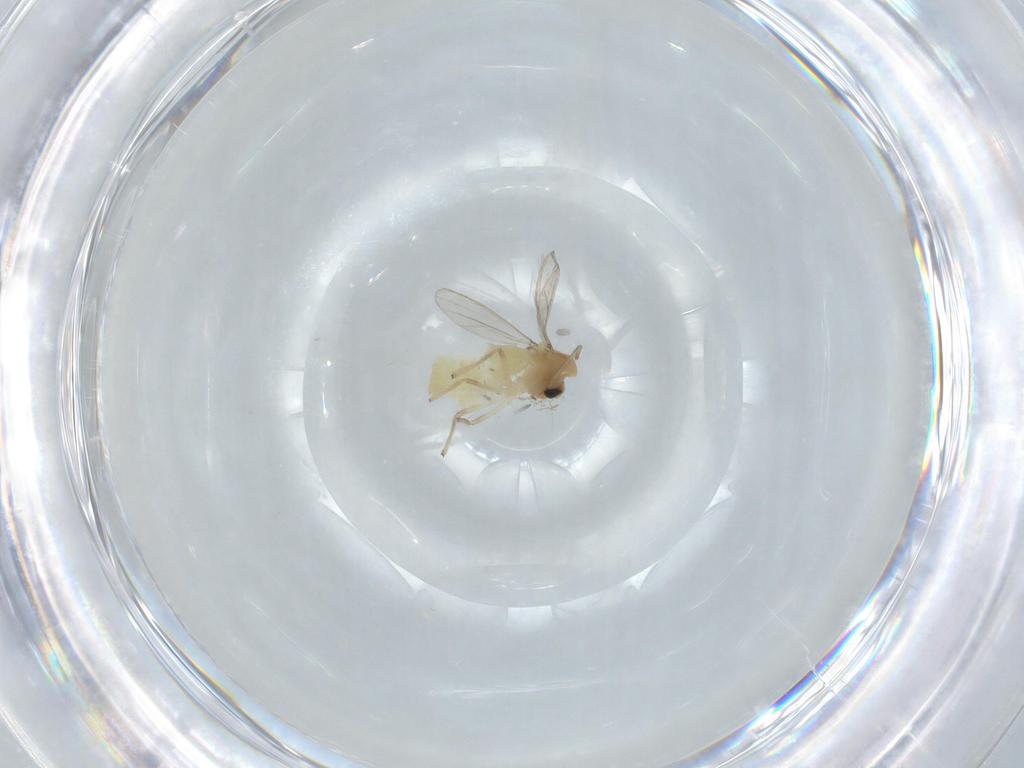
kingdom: Animalia
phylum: Arthropoda
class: Insecta
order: Diptera
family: Chironomidae
